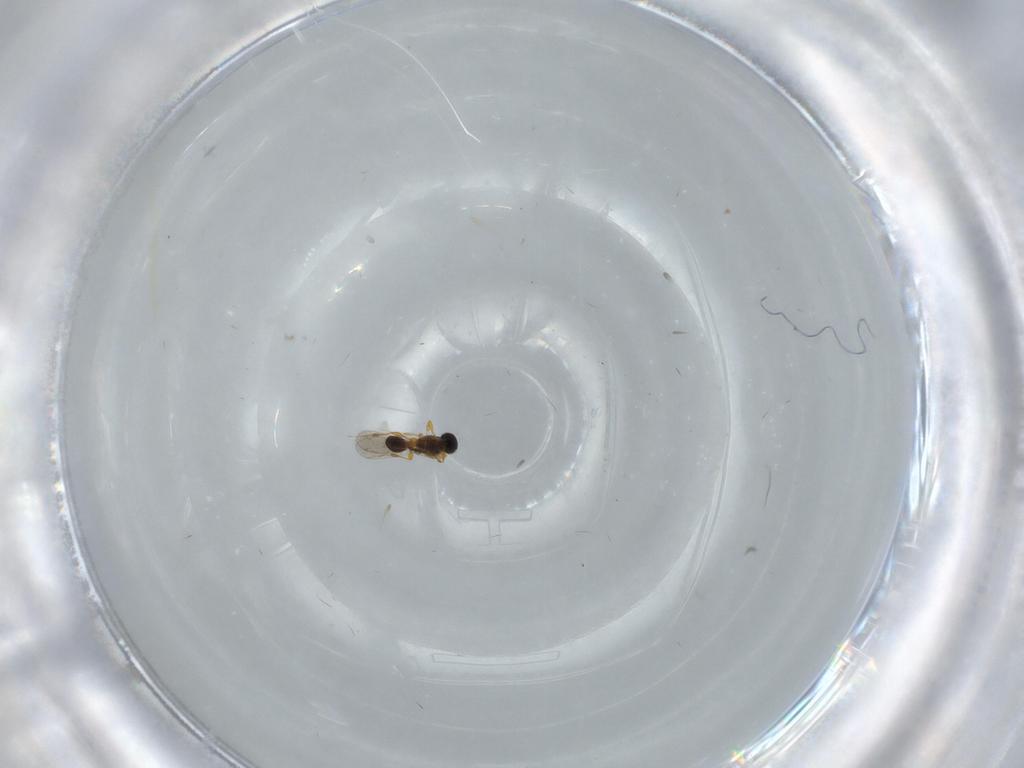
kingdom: Animalia
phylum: Arthropoda
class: Insecta
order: Hymenoptera
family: Platygastridae
